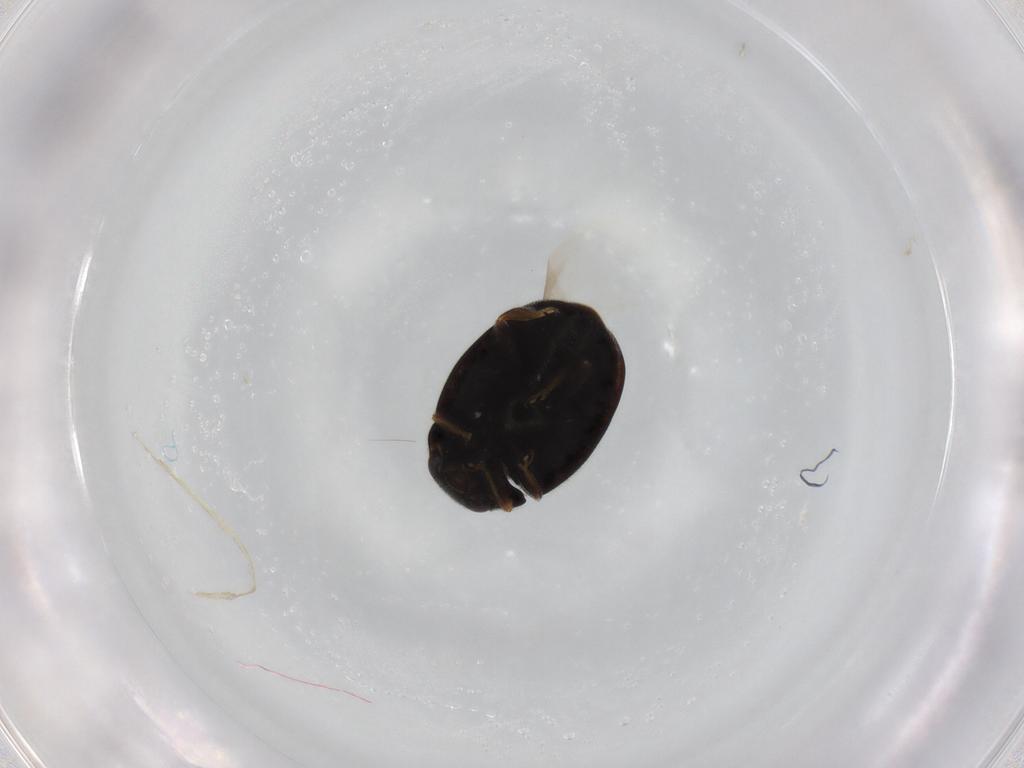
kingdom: Animalia
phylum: Arthropoda
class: Insecta
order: Coleoptera
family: Coccinellidae
